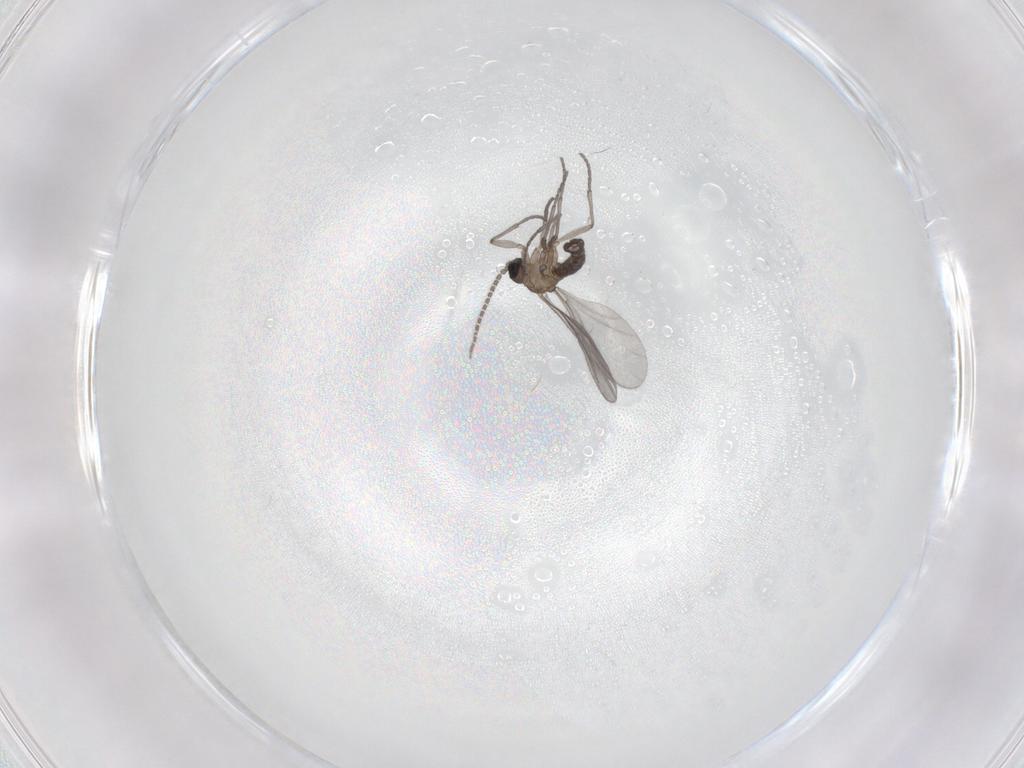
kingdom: Animalia
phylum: Arthropoda
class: Insecta
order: Diptera
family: Sciaridae
